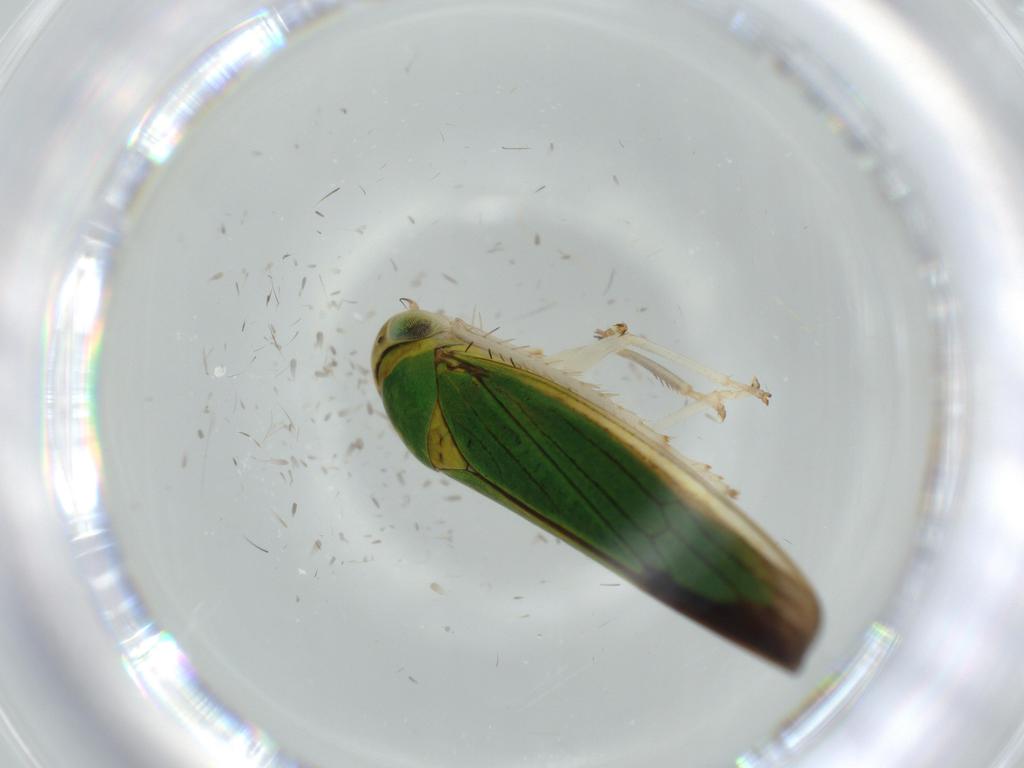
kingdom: Animalia
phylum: Arthropoda
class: Insecta
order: Hemiptera
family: Cicadellidae
